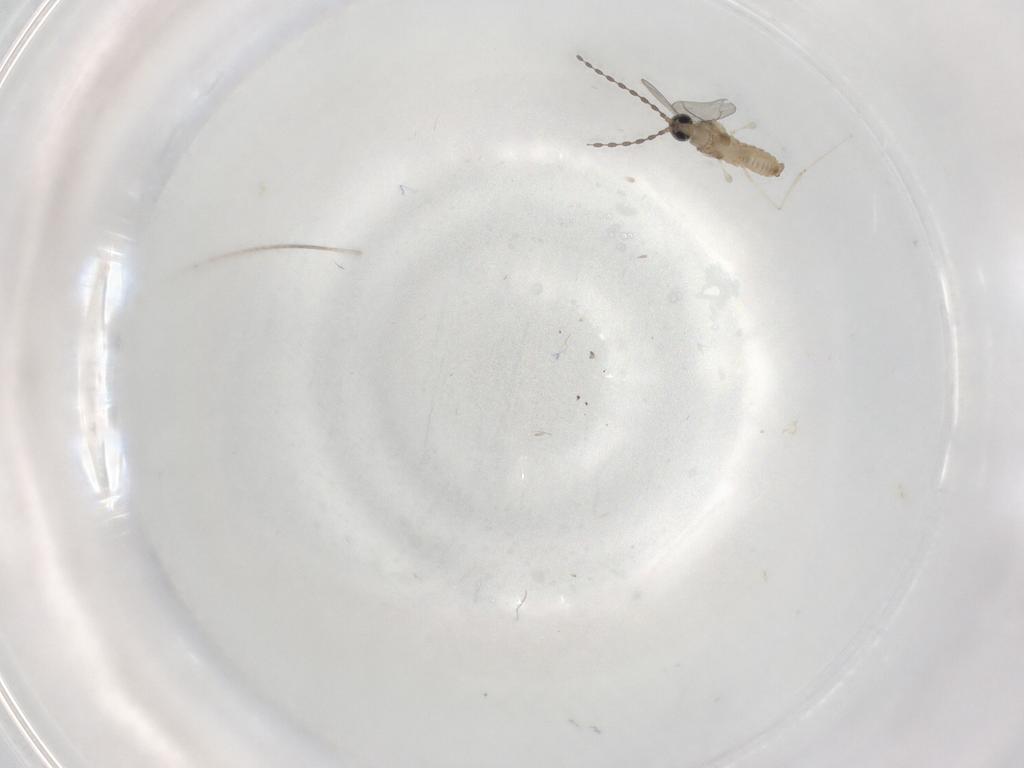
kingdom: Animalia
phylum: Arthropoda
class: Insecta
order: Diptera
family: Cecidomyiidae
